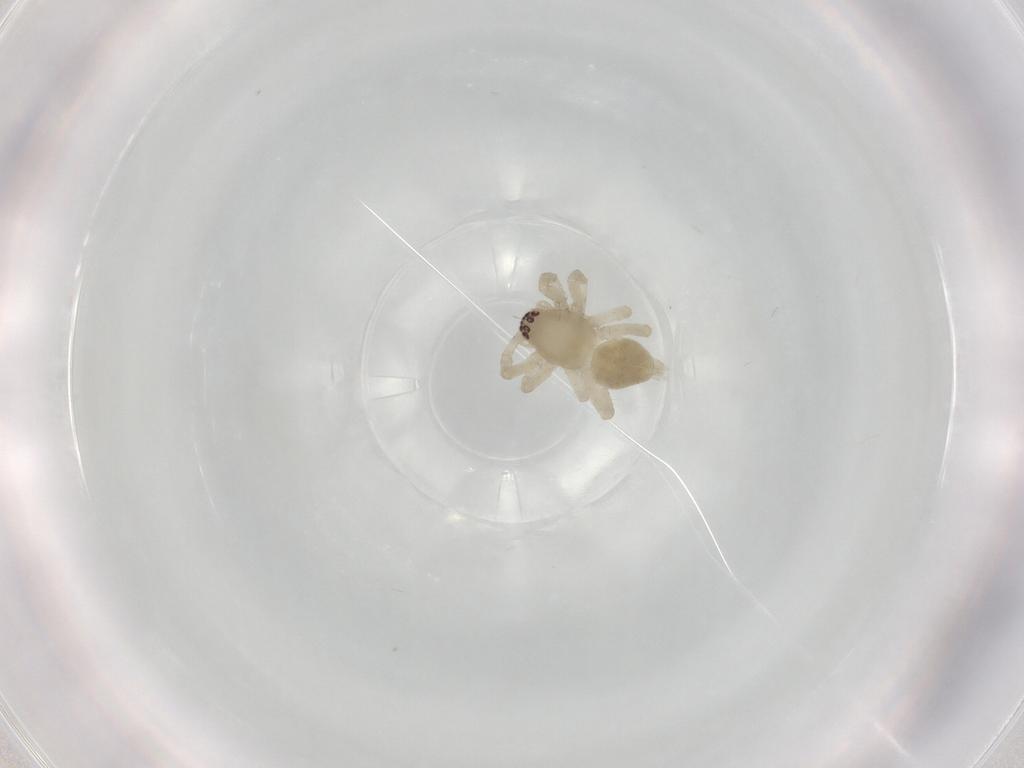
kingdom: Animalia
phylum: Arthropoda
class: Arachnida
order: Araneae
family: Anyphaenidae
